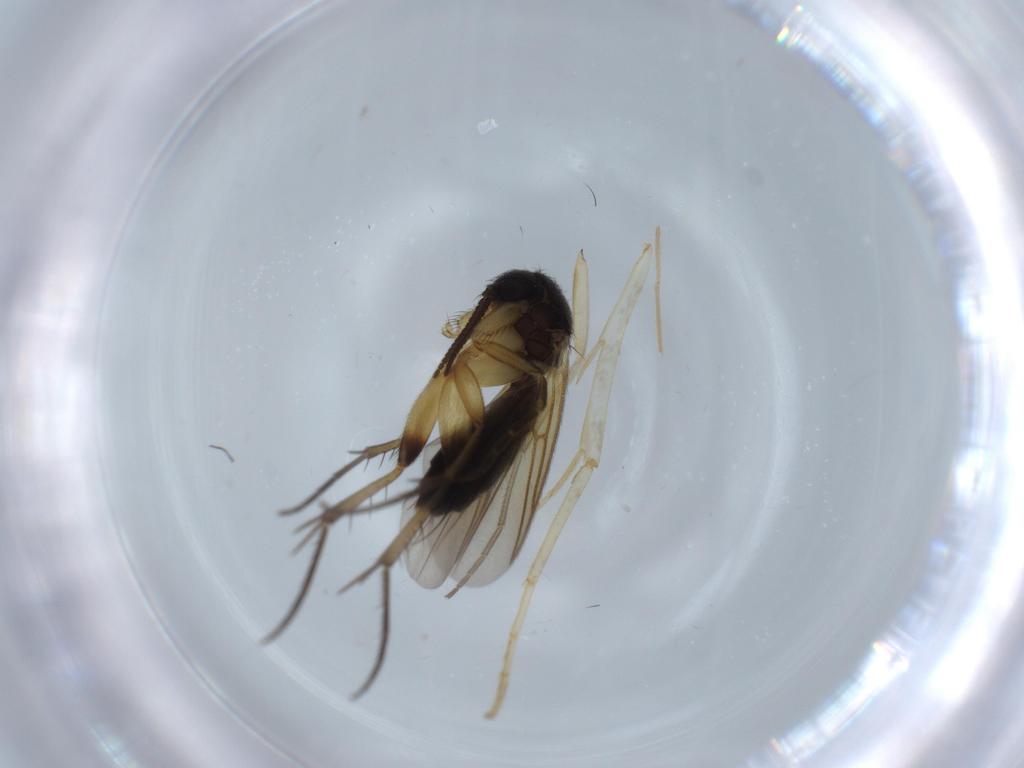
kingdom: Animalia
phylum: Arthropoda
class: Insecta
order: Diptera
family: Mycetophilidae
